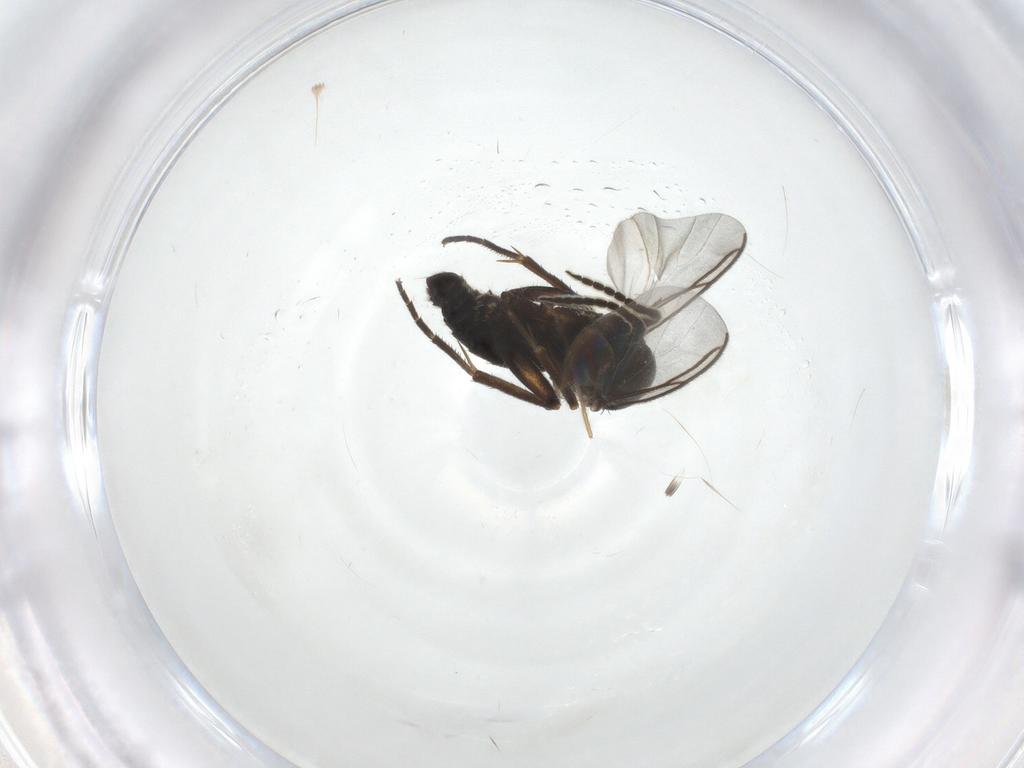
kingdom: Animalia
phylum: Arthropoda
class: Insecta
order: Diptera
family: Mycetophilidae
